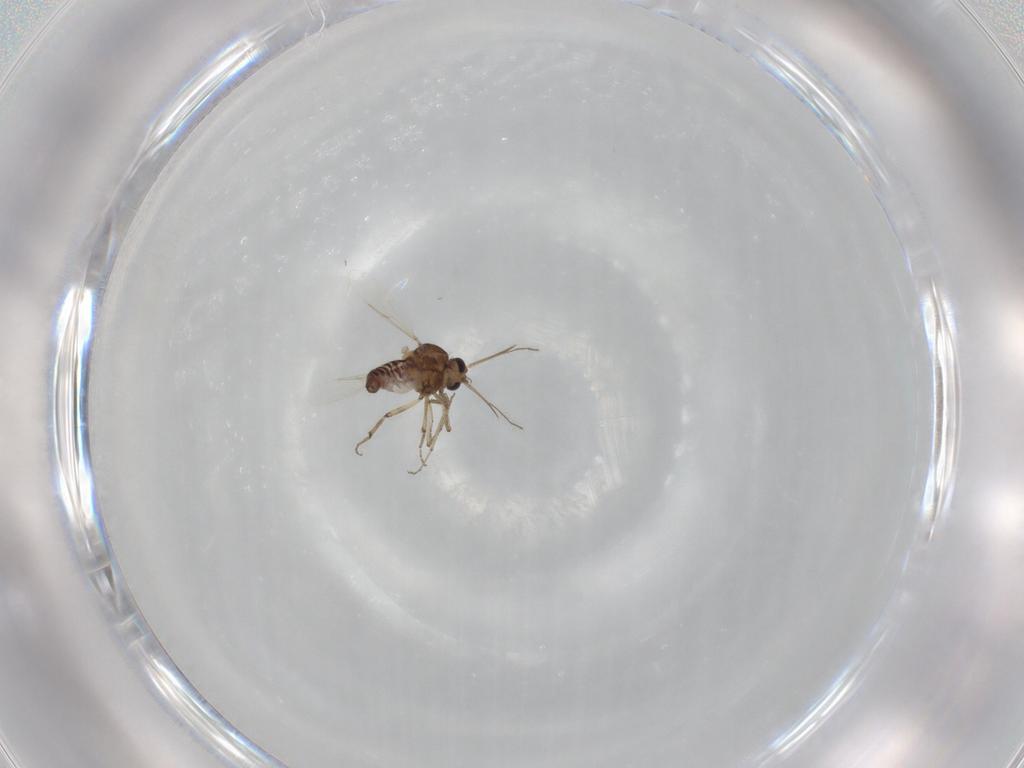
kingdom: Animalia
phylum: Arthropoda
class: Insecta
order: Diptera
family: Ceratopogonidae
